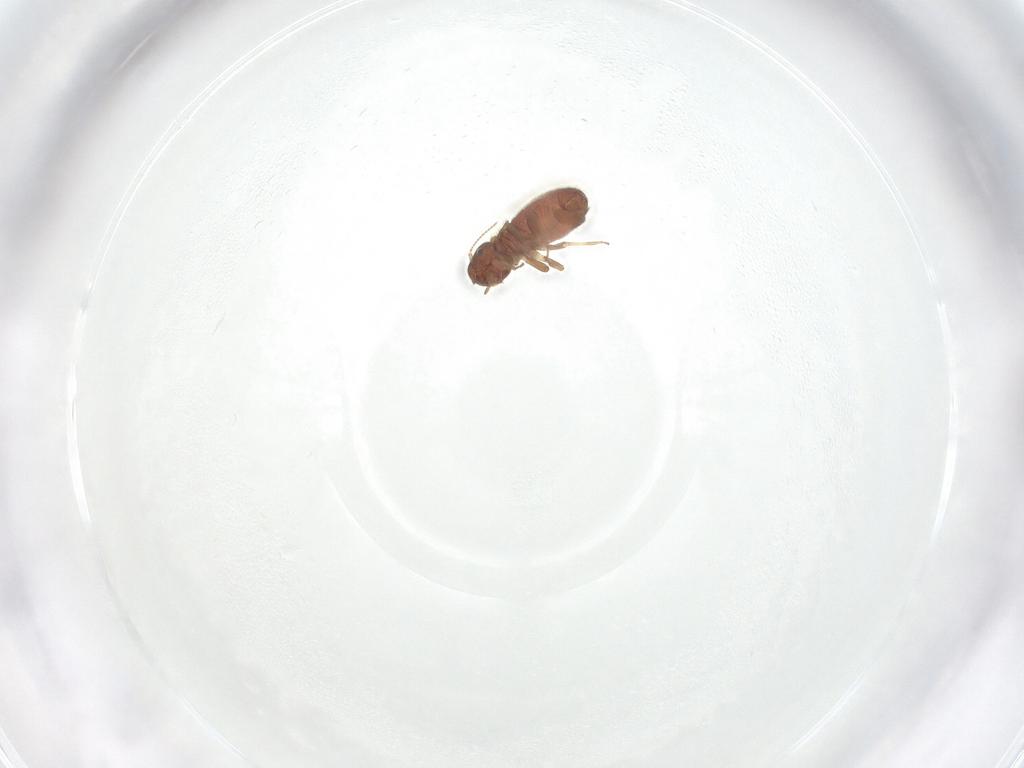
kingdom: Animalia
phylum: Arthropoda
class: Insecta
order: Psocodea
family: Archipsocidae
